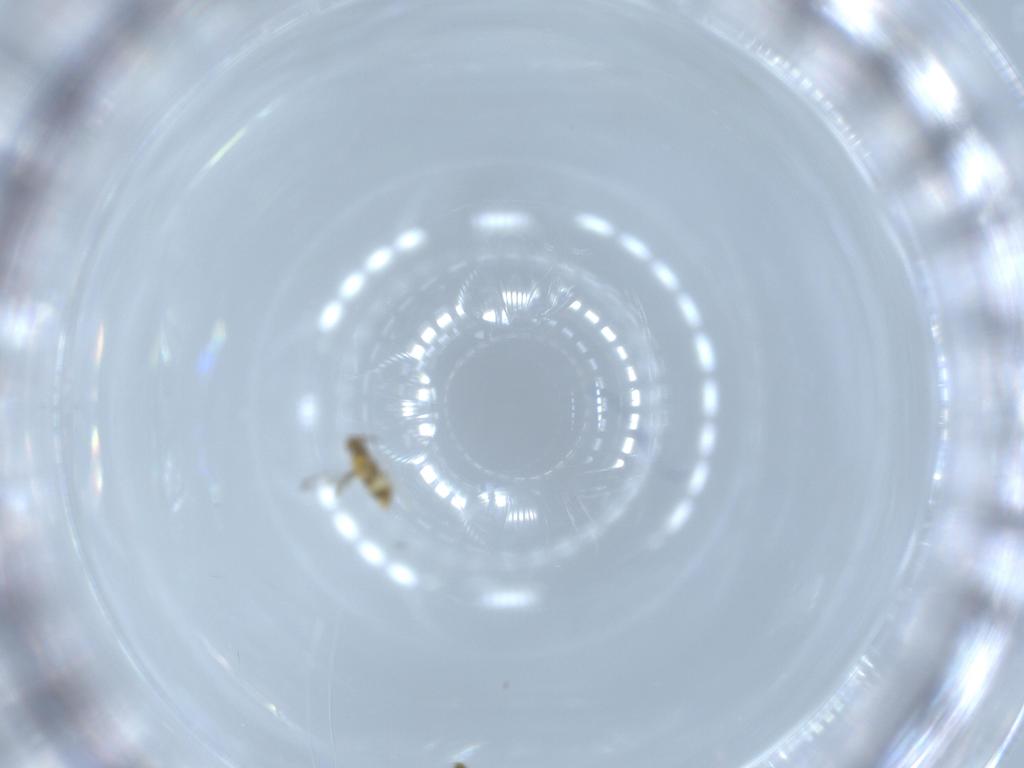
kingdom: Animalia
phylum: Arthropoda
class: Insecta
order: Hymenoptera
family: Aphelinidae
